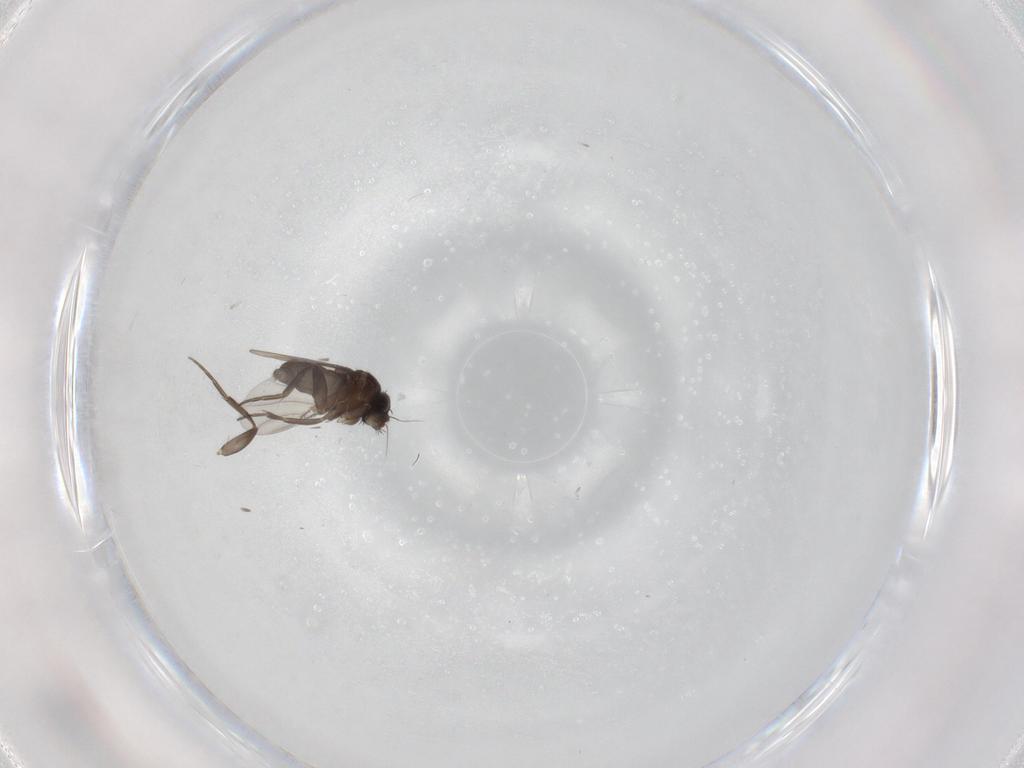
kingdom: Animalia
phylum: Arthropoda
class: Insecta
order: Diptera
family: Phoridae
